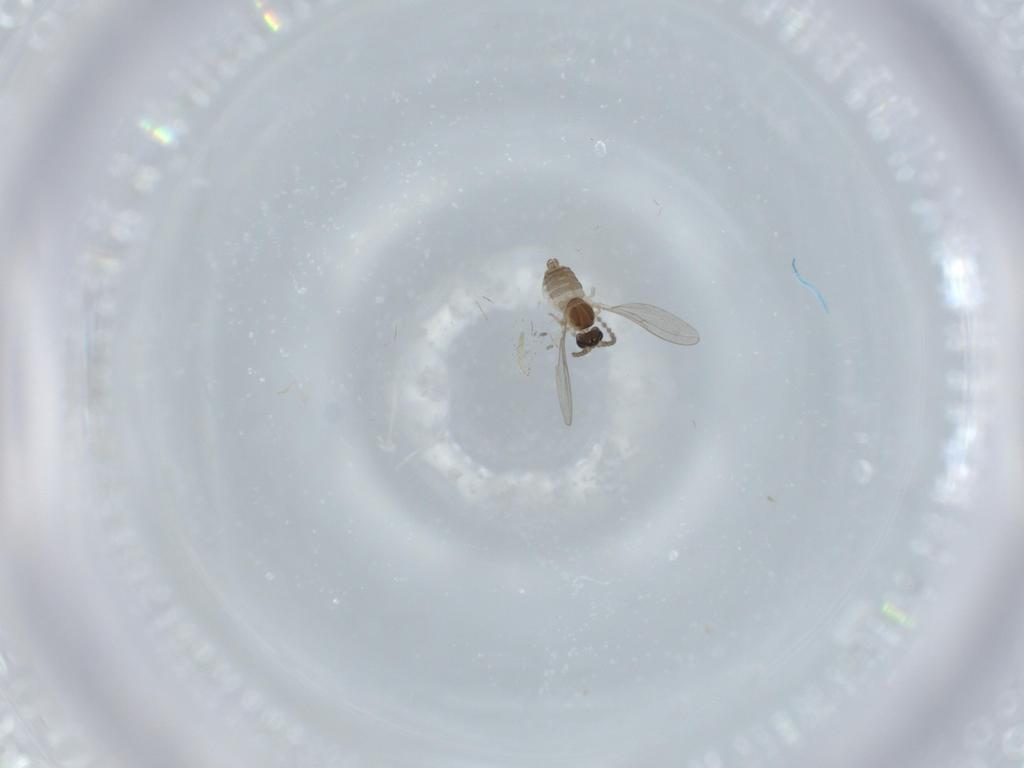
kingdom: Animalia
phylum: Arthropoda
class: Insecta
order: Diptera
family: Cecidomyiidae
